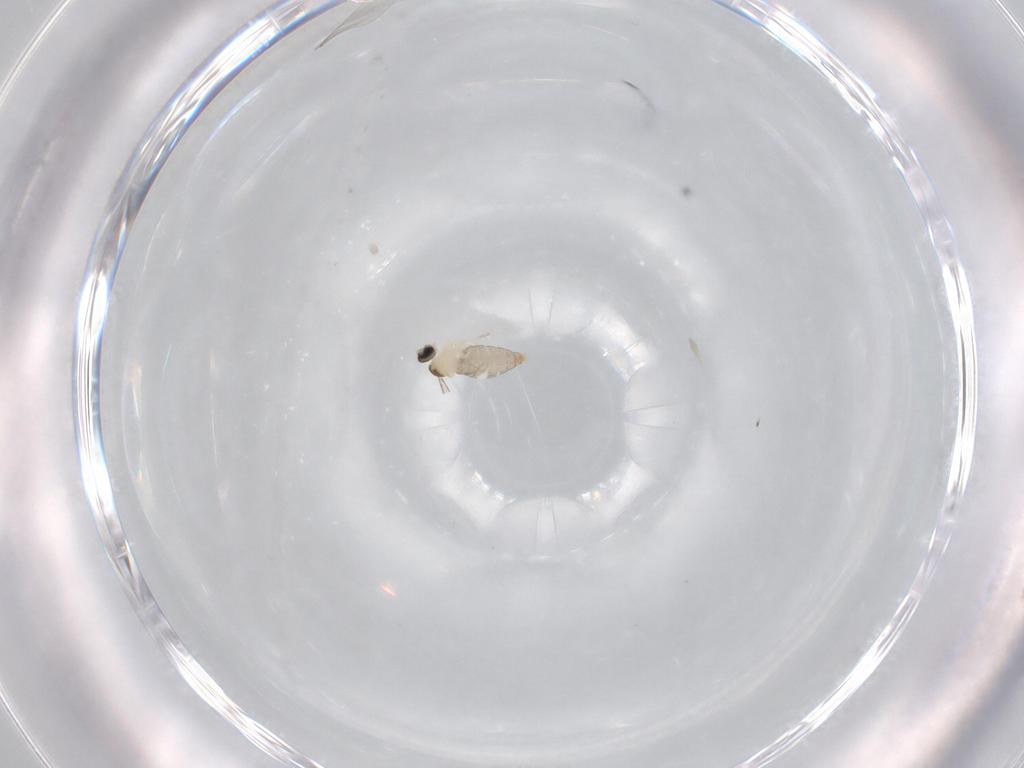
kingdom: Animalia
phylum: Arthropoda
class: Insecta
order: Diptera
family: Cecidomyiidae
